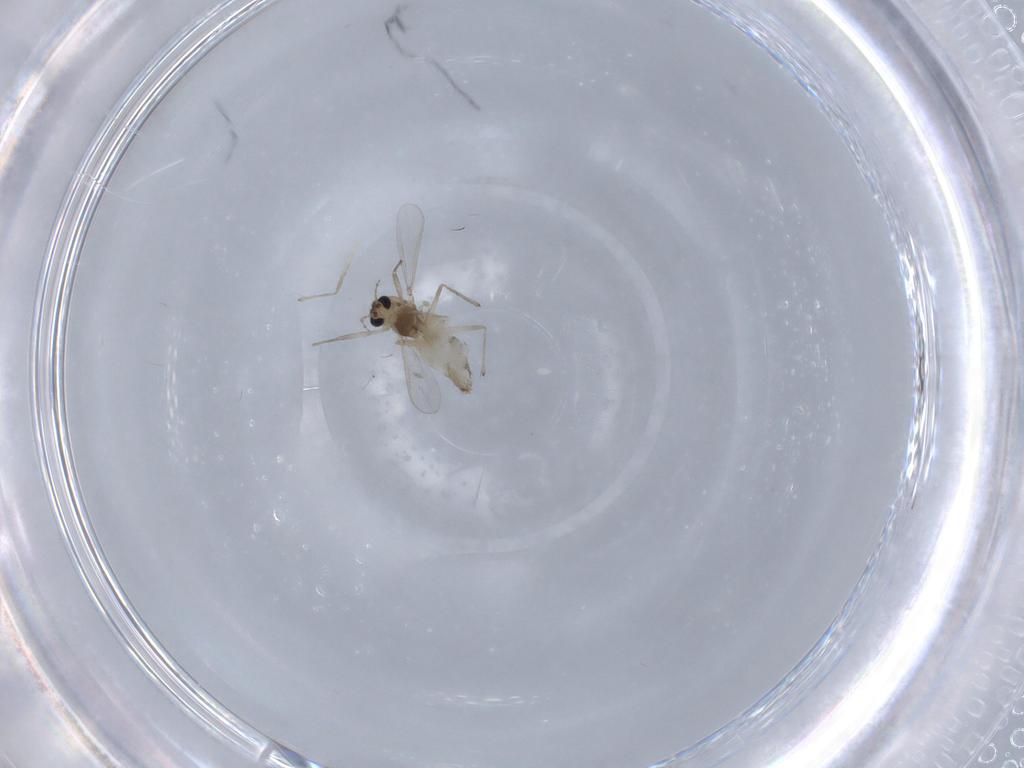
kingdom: Animalia
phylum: Arthropoda
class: Insecta
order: Diptera
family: Chironomidae
